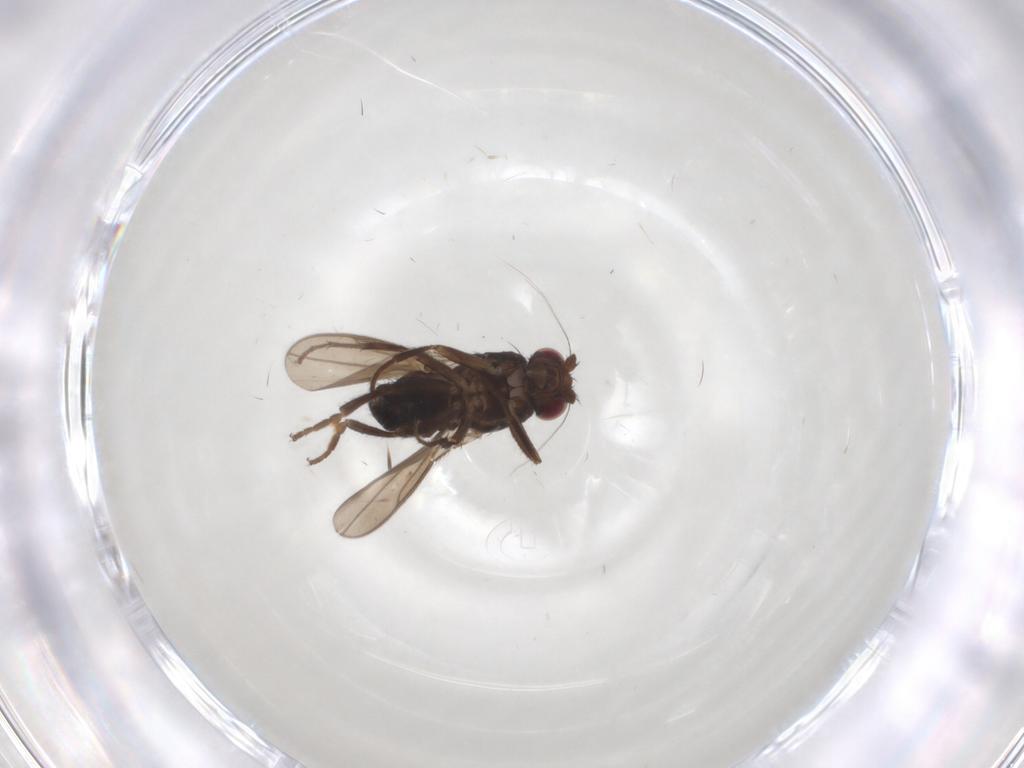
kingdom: Animalia
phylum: Arthropoda
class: Insecta
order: Diptera
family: Sphaeroceridae
